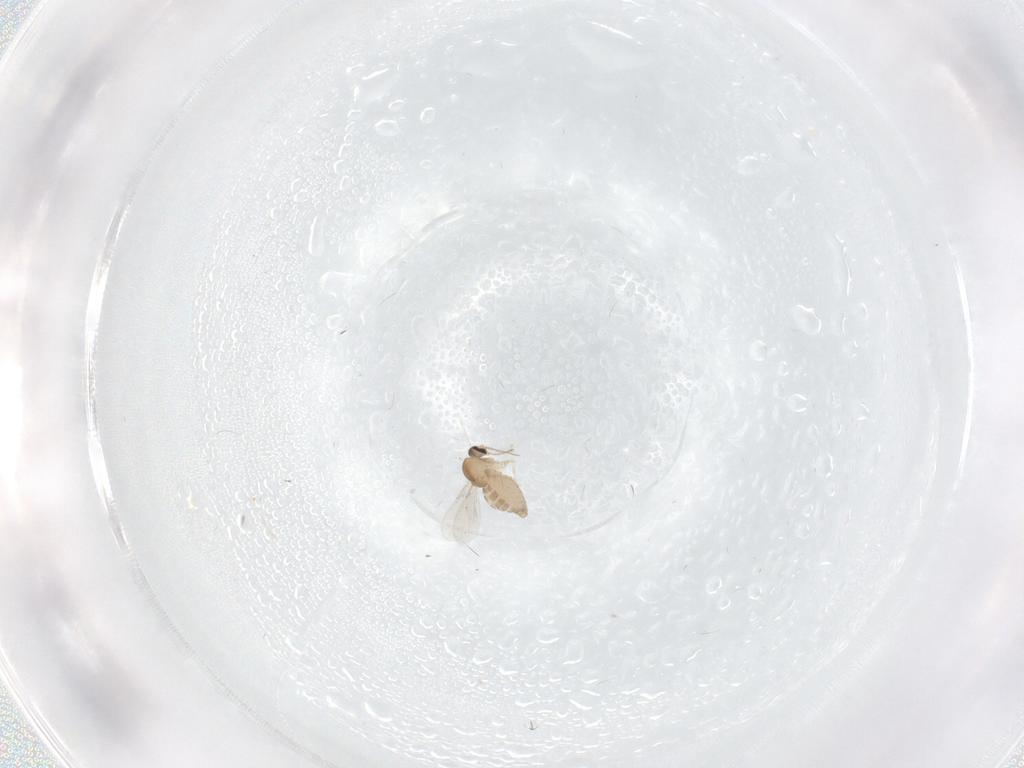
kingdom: Animalia
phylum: Arthropoda
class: Insecta
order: Diptera
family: Ceratopogonidae
